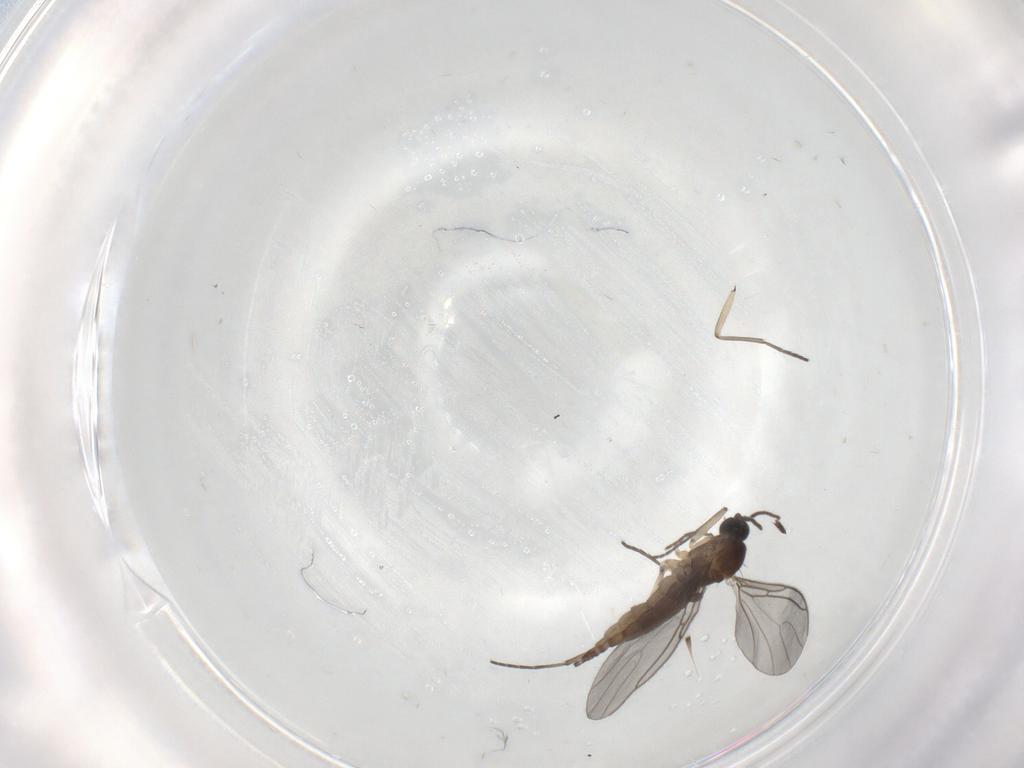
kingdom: Animalia
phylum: Arthropoda
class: Insecta
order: Diptera
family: Sciaridae
